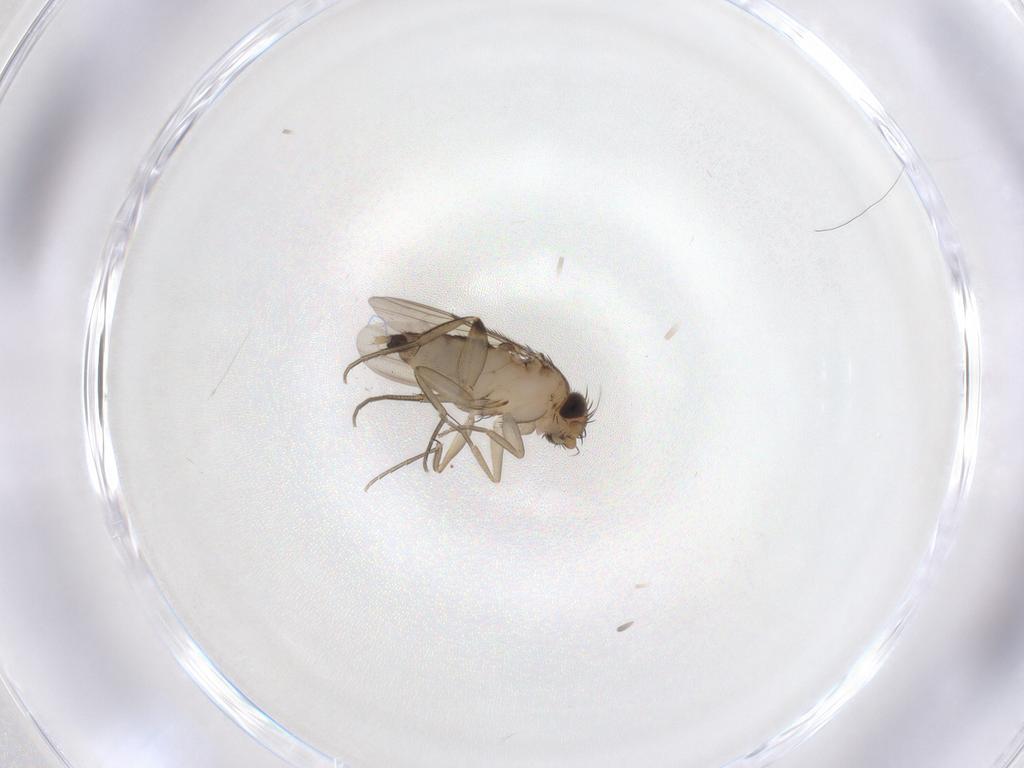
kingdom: Animalia
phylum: Arthropoda
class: Insecta
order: Diptera
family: Phoridae
